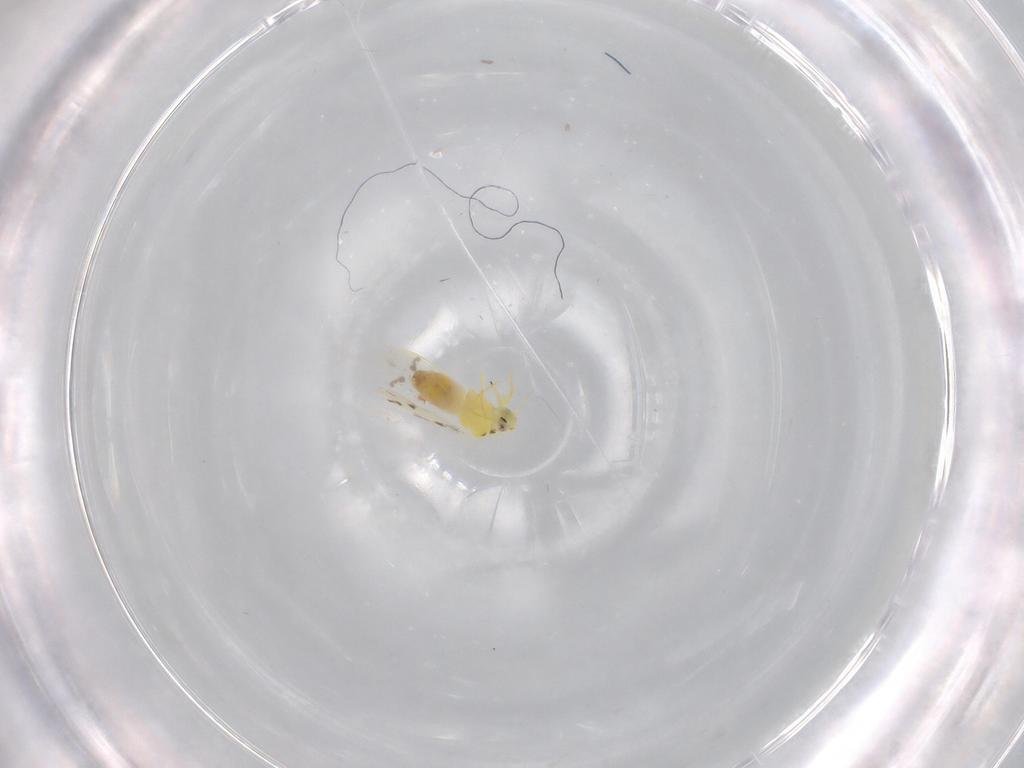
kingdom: Animalia
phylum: Arthropoda
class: Insecta
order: Hemiptera
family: Aleyrodidae
